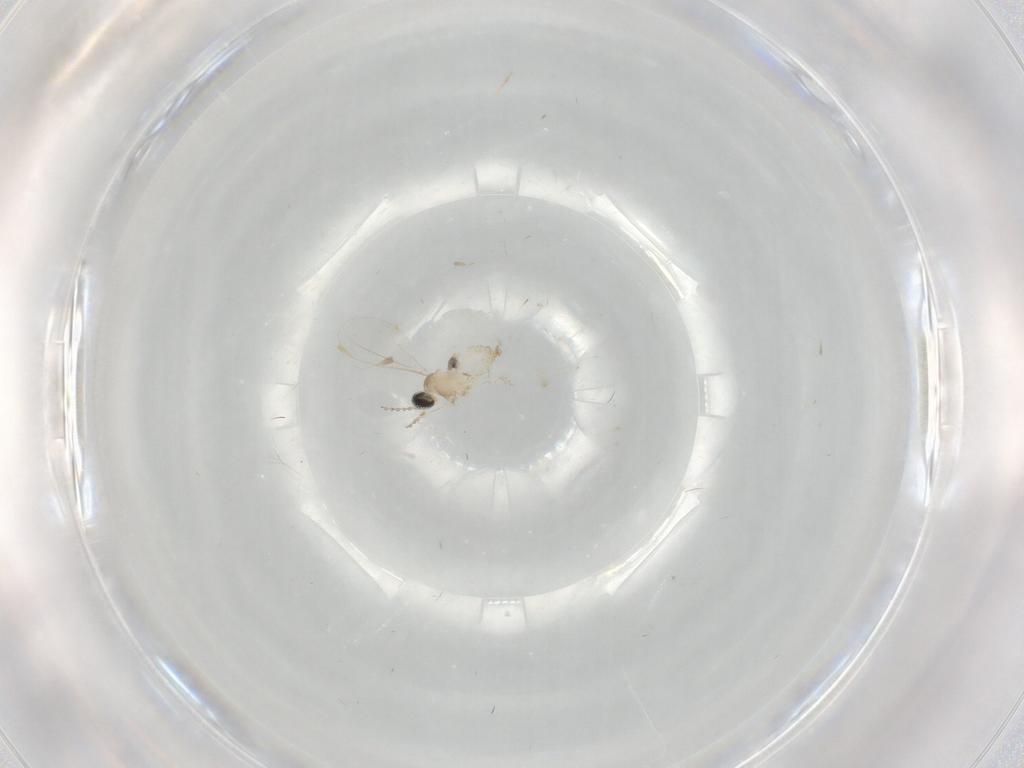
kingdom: Animalia
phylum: Arthropoda
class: Insecta
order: Diptera
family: Cecidomyiidae
